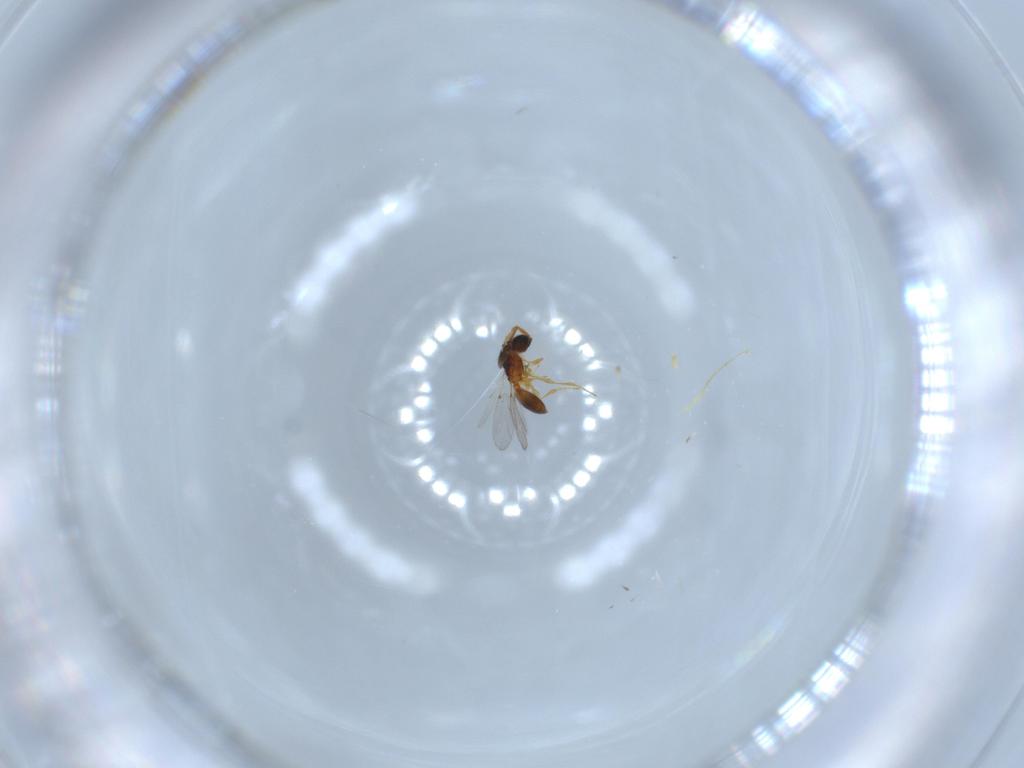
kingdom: Animalia
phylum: Arthropoda
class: Insecta
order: Hymenoptera
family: Diapriidae
